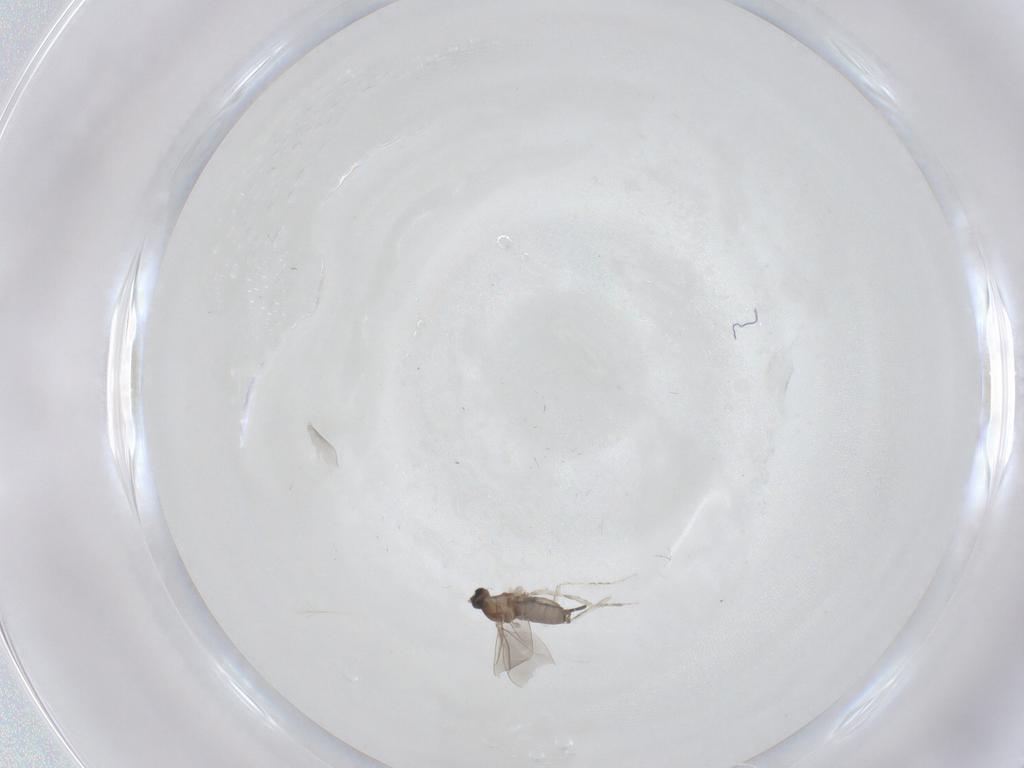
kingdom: Animalia
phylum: Arthropoda
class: Insecta
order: Diptera
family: Cecidomyiidae
